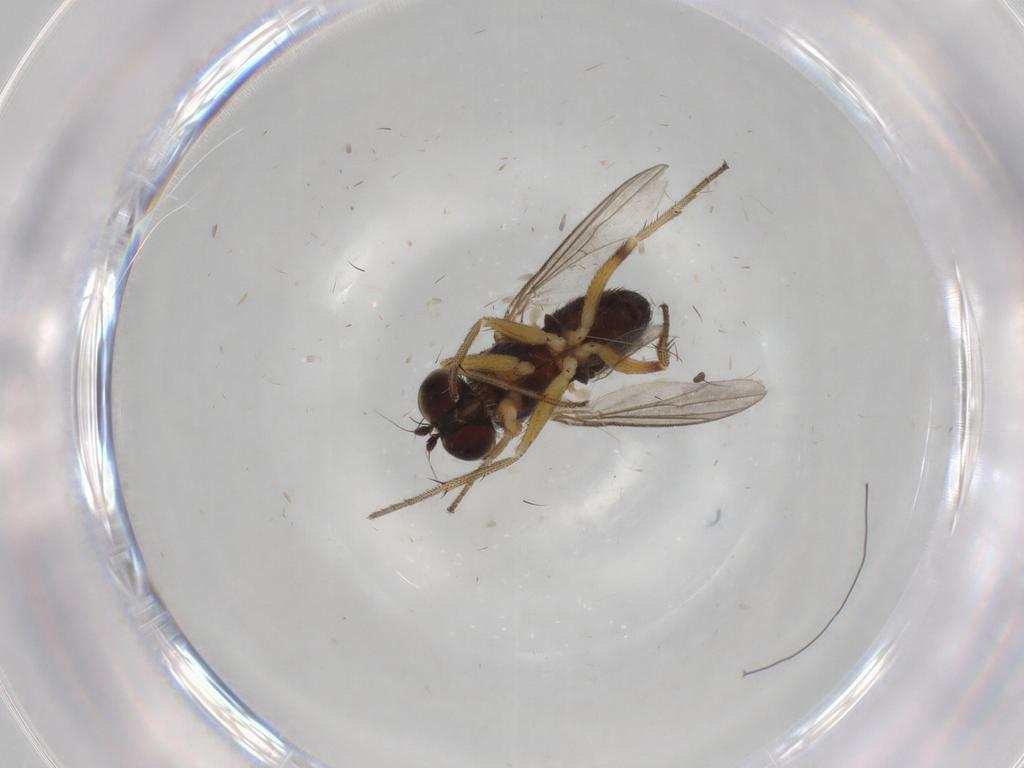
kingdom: Animalia
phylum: Arthropoda
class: Insecta
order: Diptera
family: Dolichopodidae
